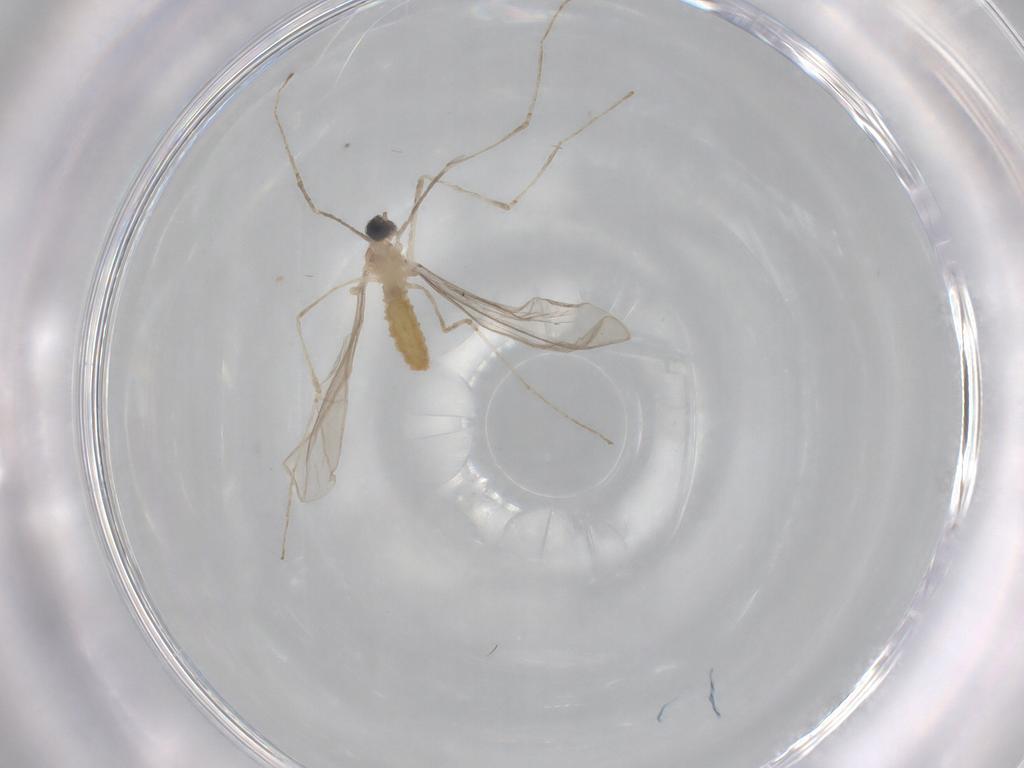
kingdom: Animalia
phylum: Arthropoda
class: Insecta
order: Diptera
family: Cecidomyiidae
